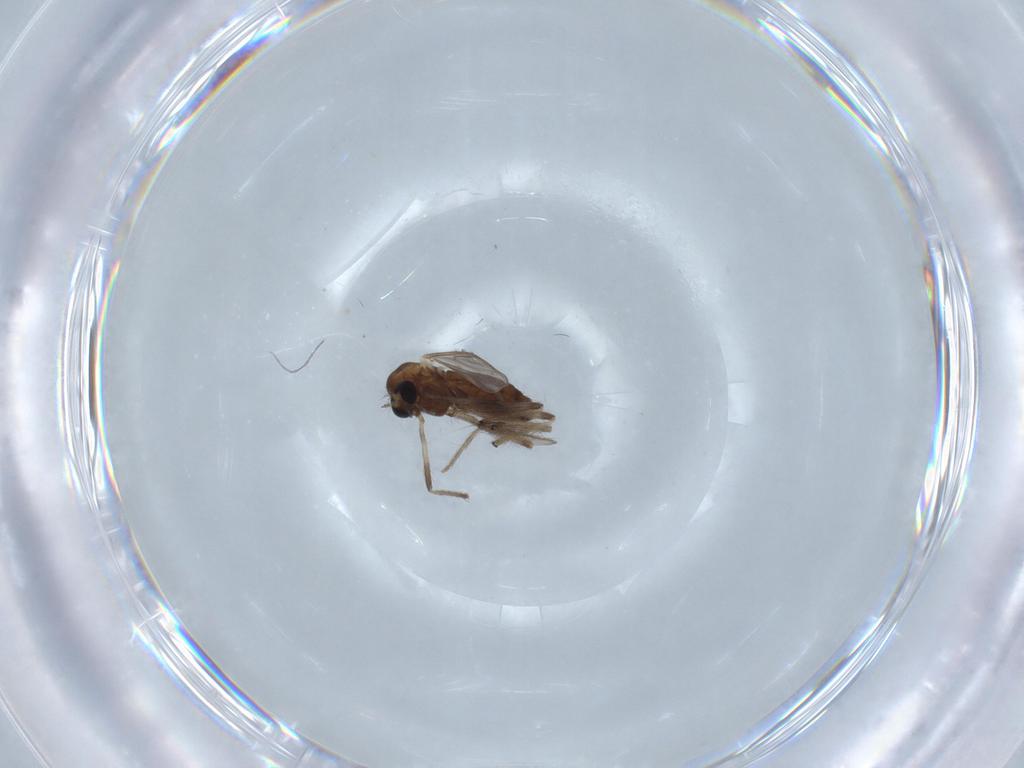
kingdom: Animalia
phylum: Arthropoda
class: Insecta
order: Diptera
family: Chironomidae
